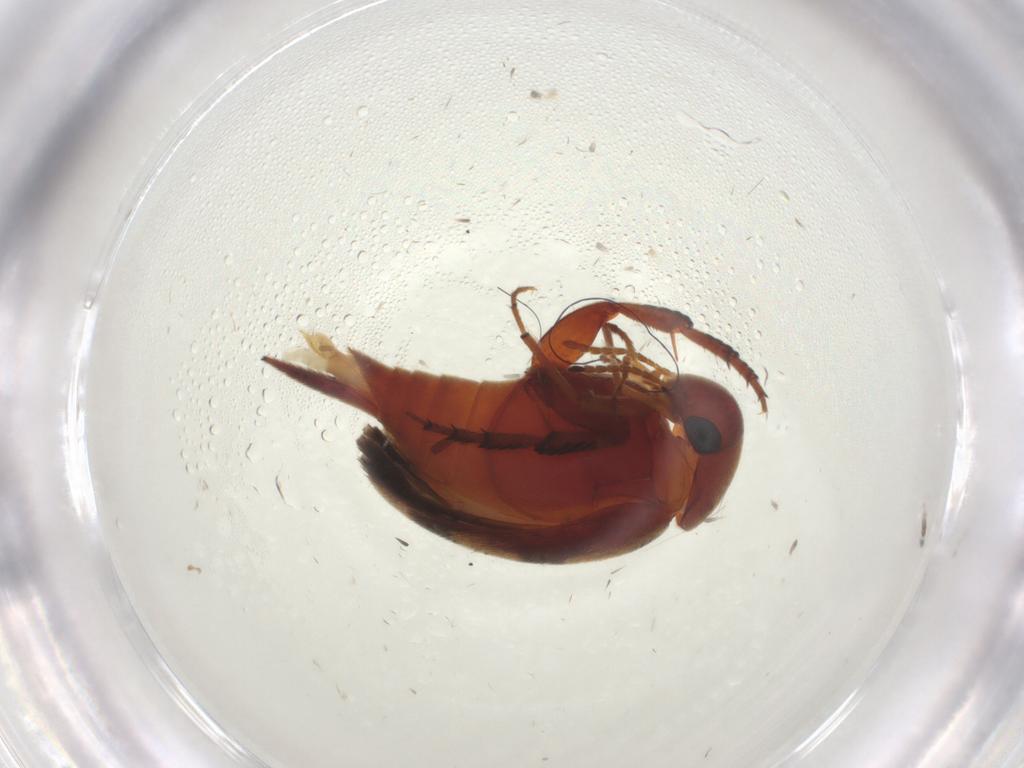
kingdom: Animalia
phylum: Arthropoda
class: Insecta
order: Coleoptera
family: Mordellidae
